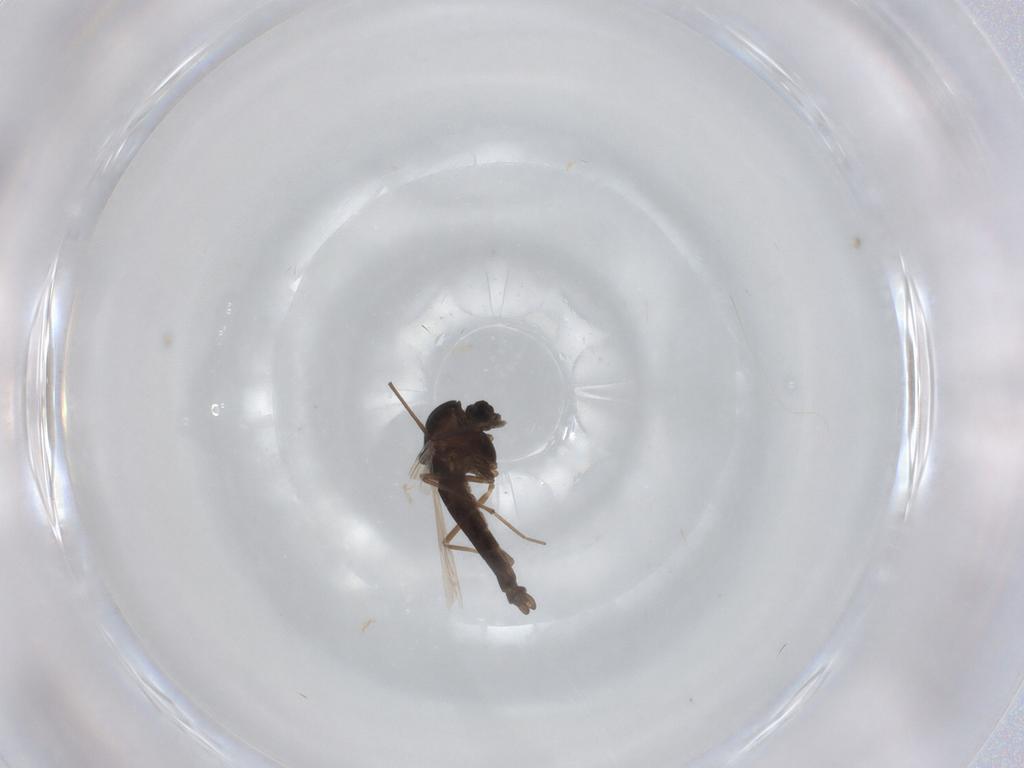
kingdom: Animalia
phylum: Arthropoda
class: Insecta
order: Diptera
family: Chironomidae
